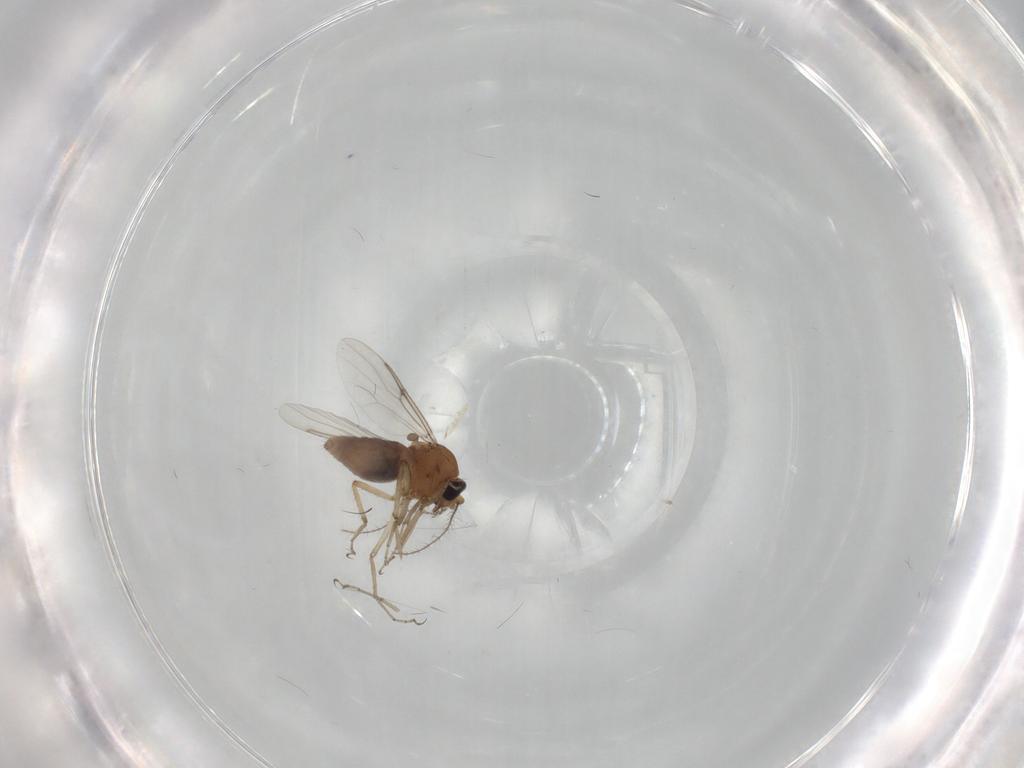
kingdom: Animalia
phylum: Arthropoda
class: Insecta
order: Diptera
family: Chironomidae
